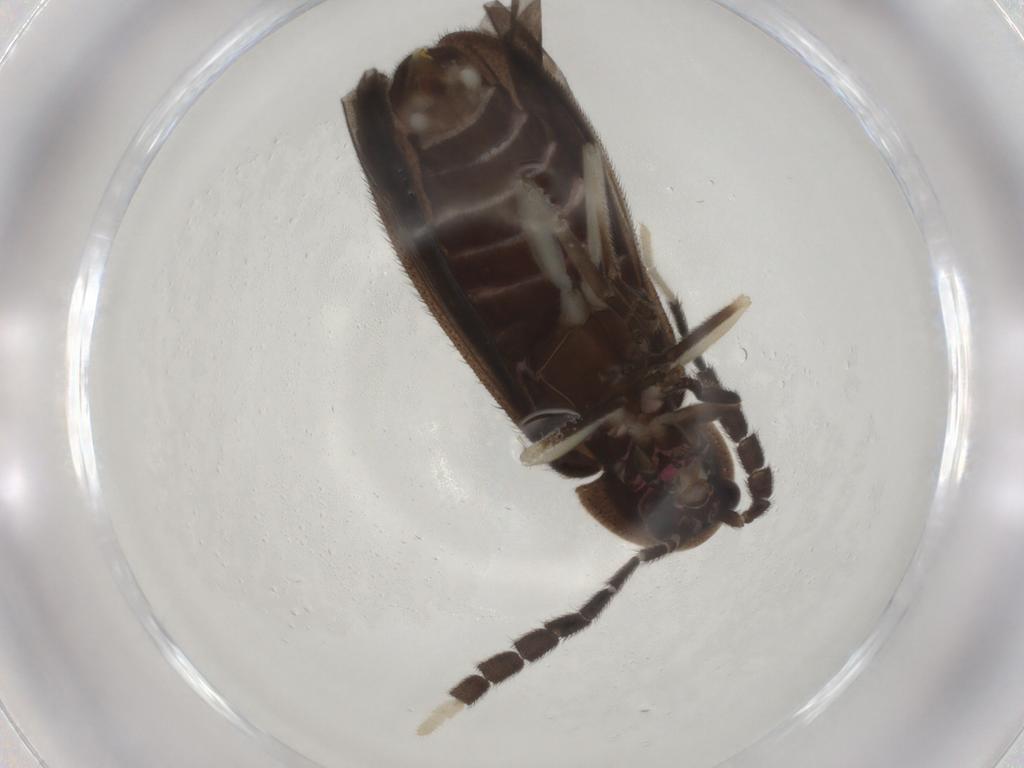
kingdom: Animalia
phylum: Arthropoda
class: Insecta
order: Coleoptera
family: Lampyridae
